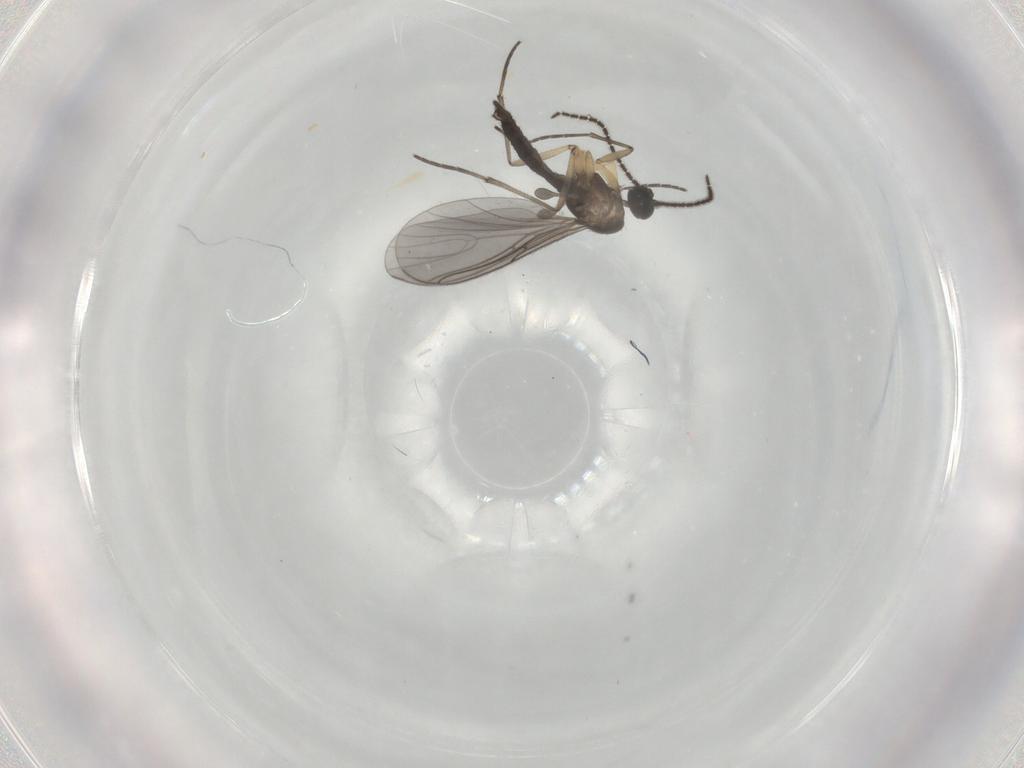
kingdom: Animalia
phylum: Arthropoda
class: Insecta
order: Diptera
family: Sciaridae
